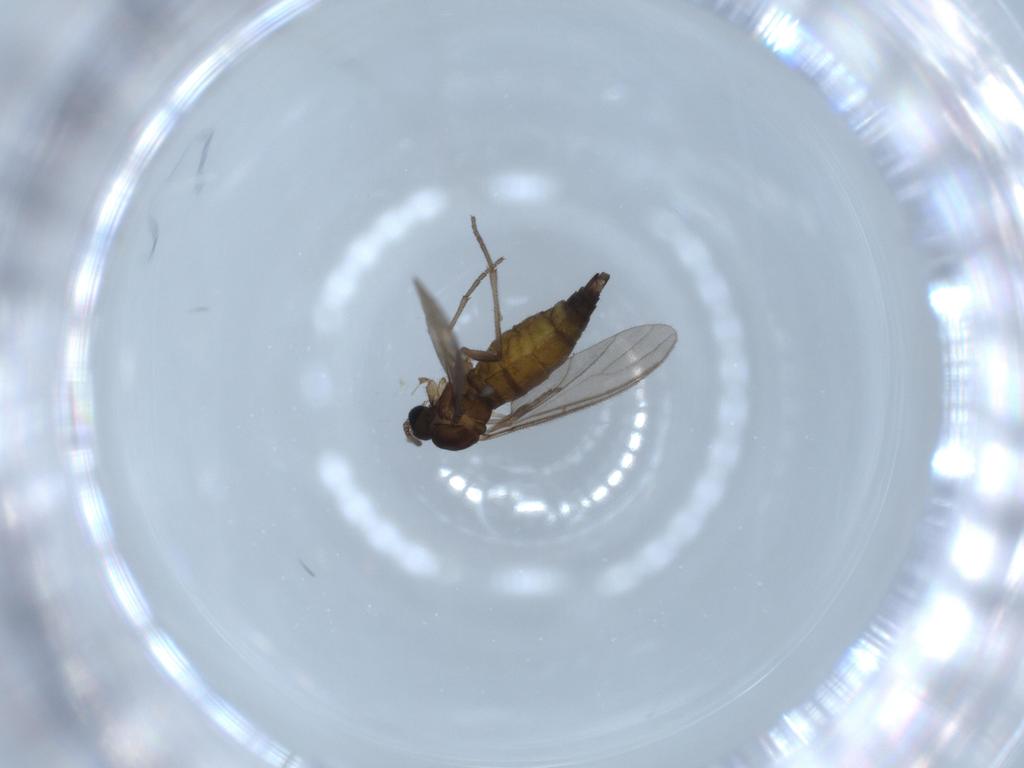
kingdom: Animalia
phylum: Arthropoda
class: Insecta
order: Diptera
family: Sciaridae
